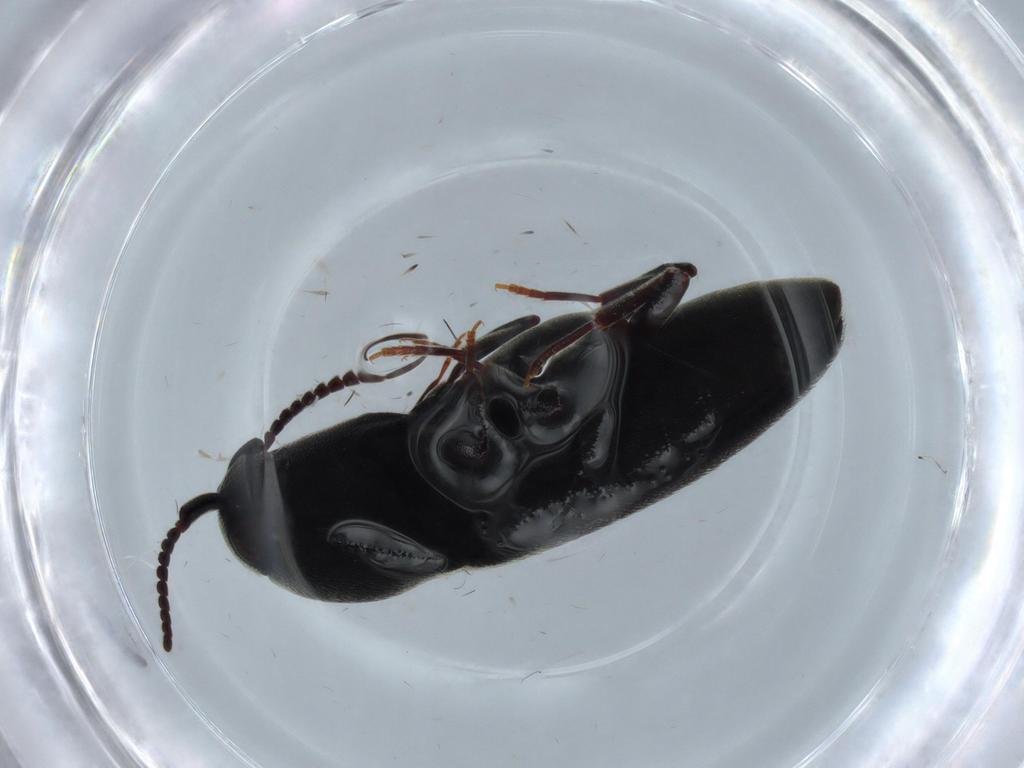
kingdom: Animalia
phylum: Arthropoda
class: Insecta
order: Coleoptera
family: Eucnemidae
